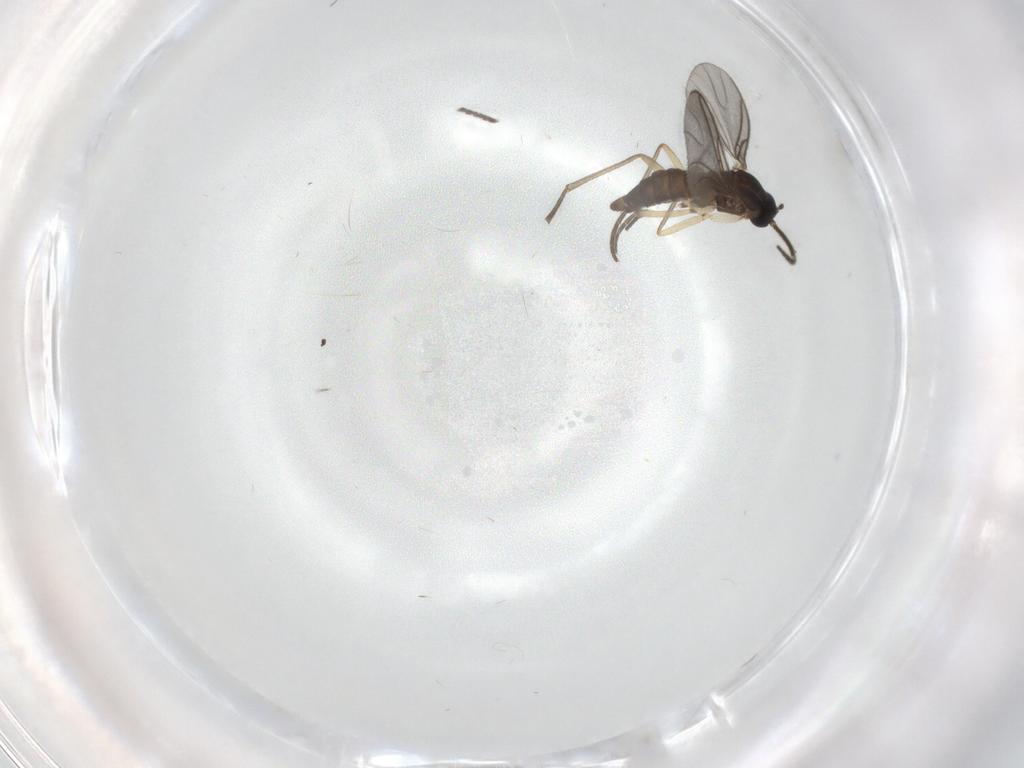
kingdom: Animalia
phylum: Arthropoda
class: Insecta
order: Diptera
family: Sciaridae
